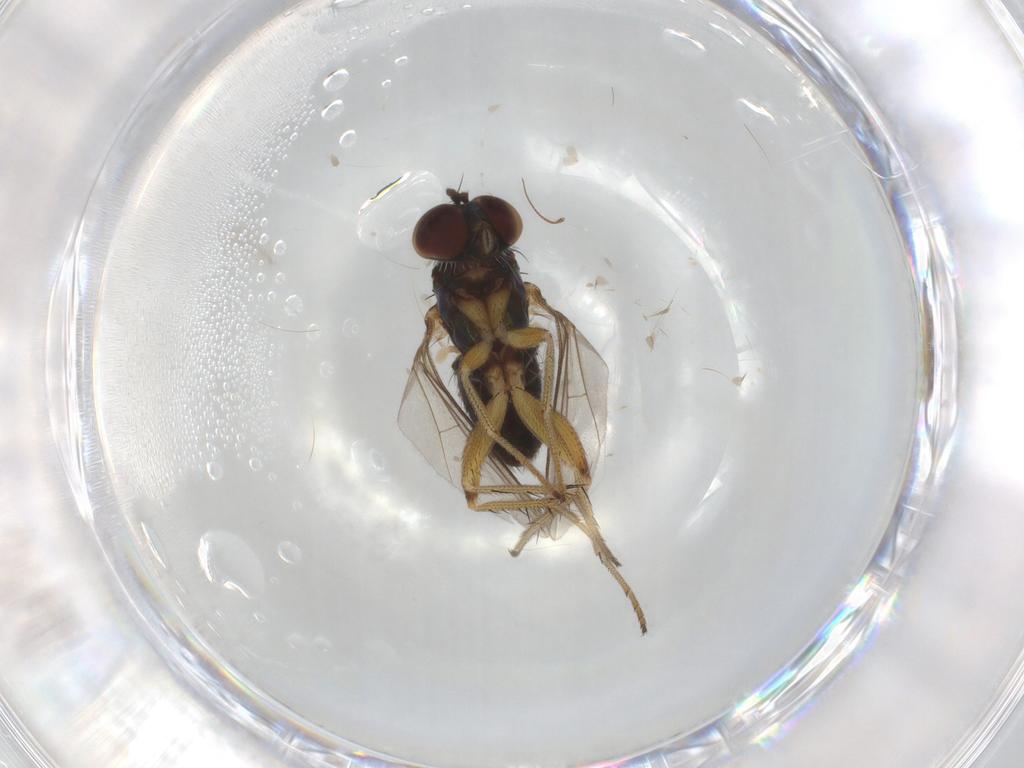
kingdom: Animalia
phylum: Arthropoda
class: Insecta
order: Diptera
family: Dolichopodidae
